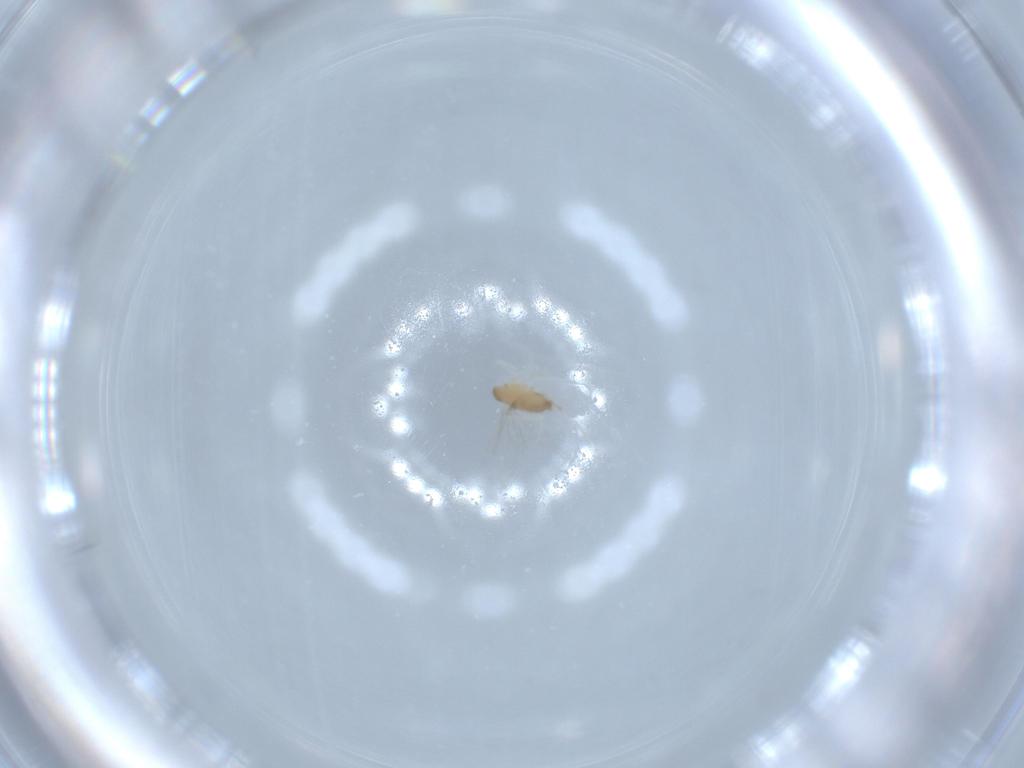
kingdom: Animalia
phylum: Arthropoda
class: Insecta
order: Diptera
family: Cecidomyiidae
